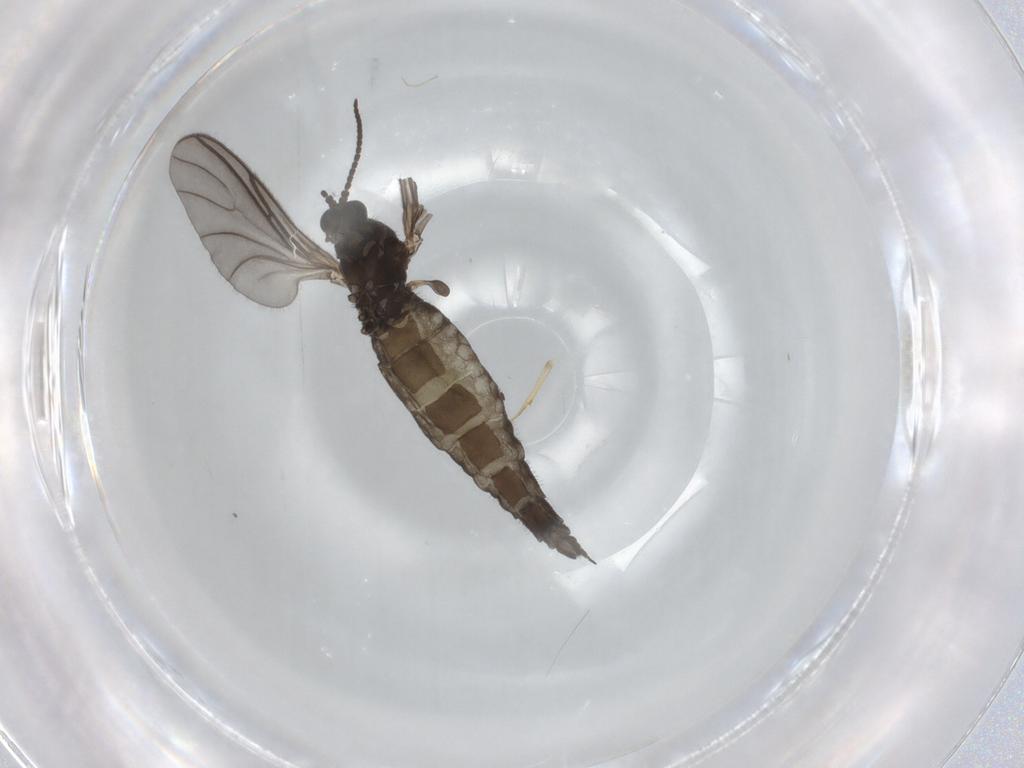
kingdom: Animalia
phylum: Arthropoda
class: Insecta
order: Diptera
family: Sciaridae
